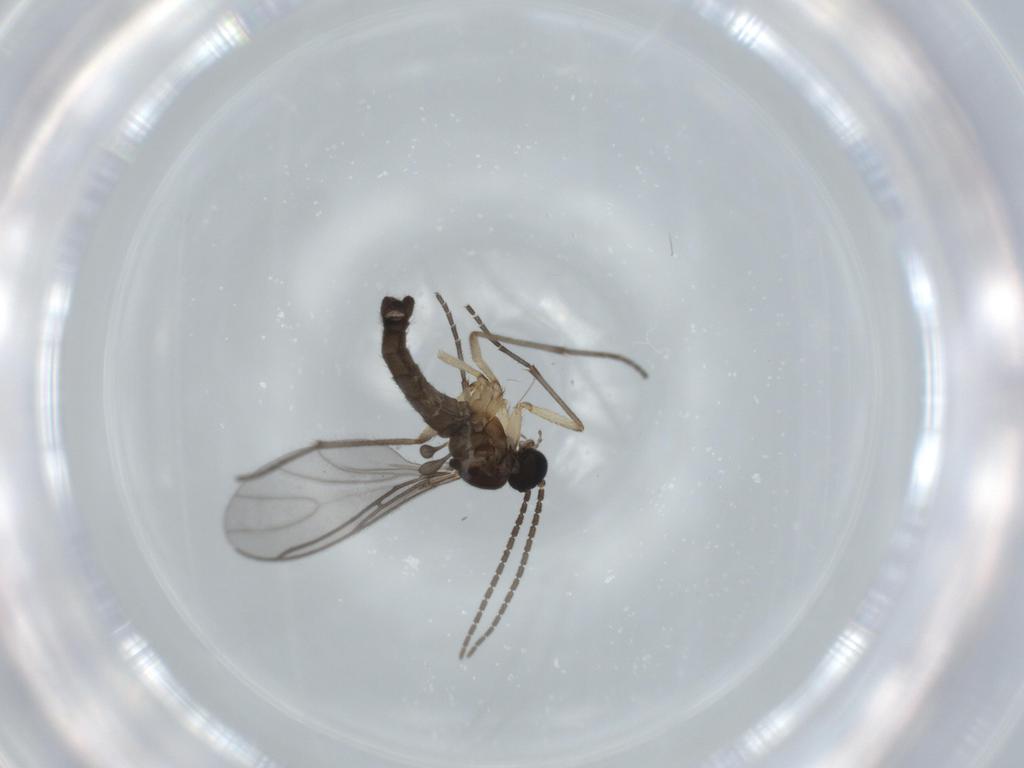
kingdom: Animalia
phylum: Arthropoda
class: Insecta
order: Diptera
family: Sciaridae
